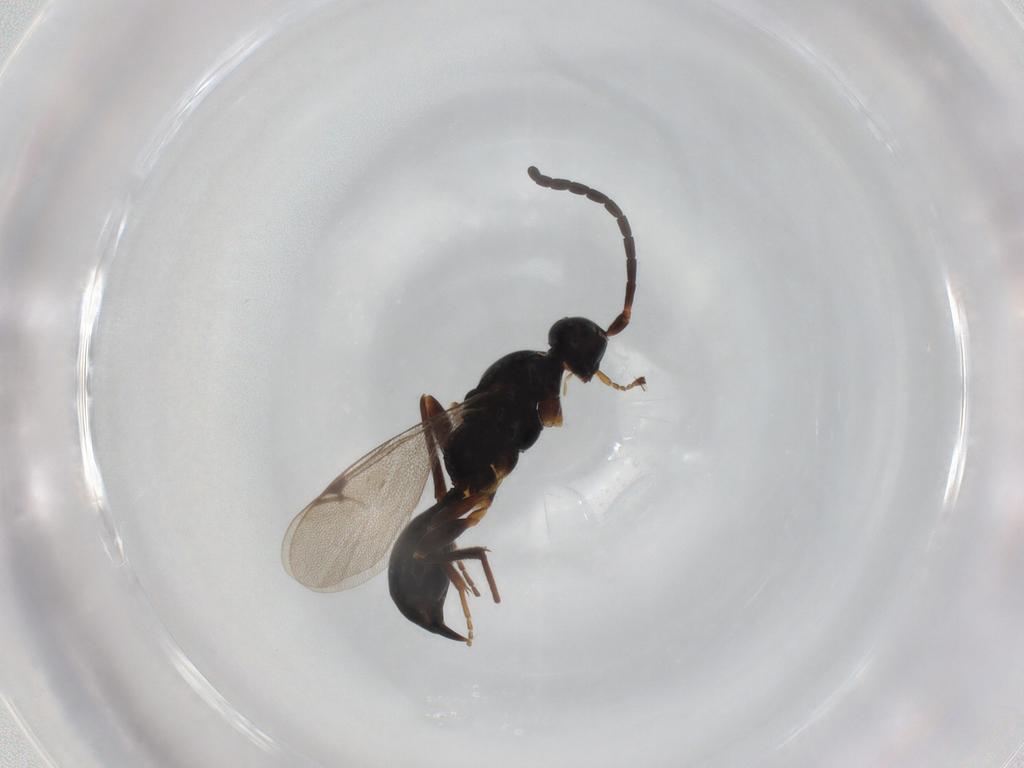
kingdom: Animalia
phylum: Arthropoda
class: Insecta
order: Hymenoptera
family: Proctotrupidae
